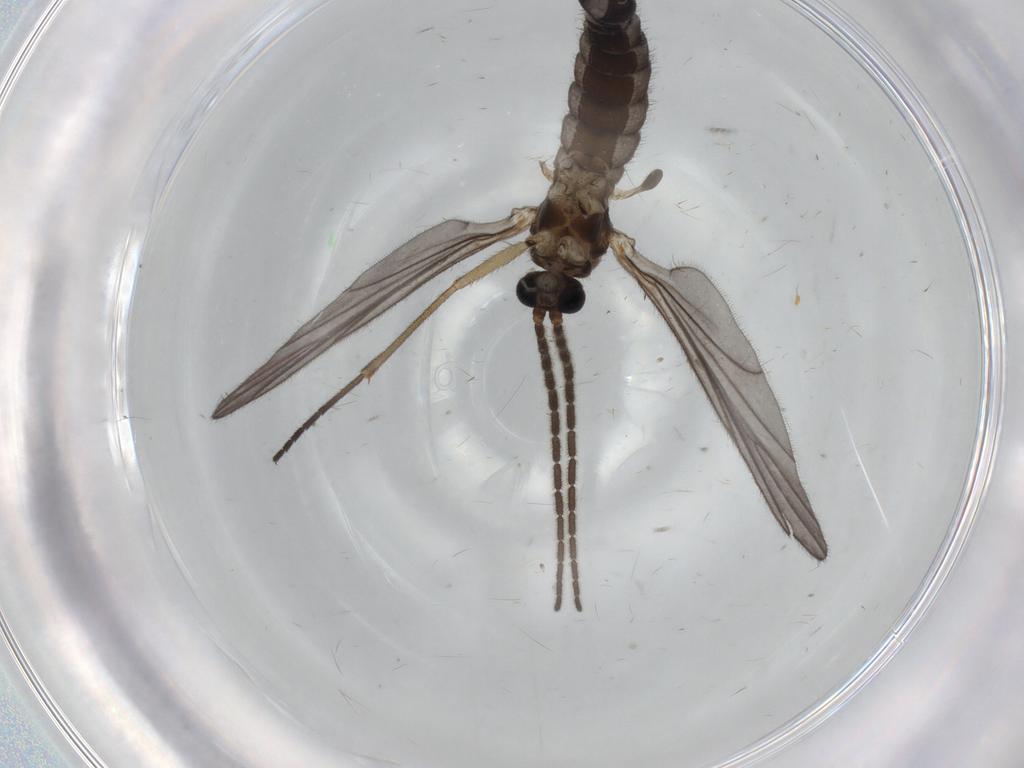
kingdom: Animalia
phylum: Arthropoda
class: Insecta
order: Diptera
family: Sciaridae
